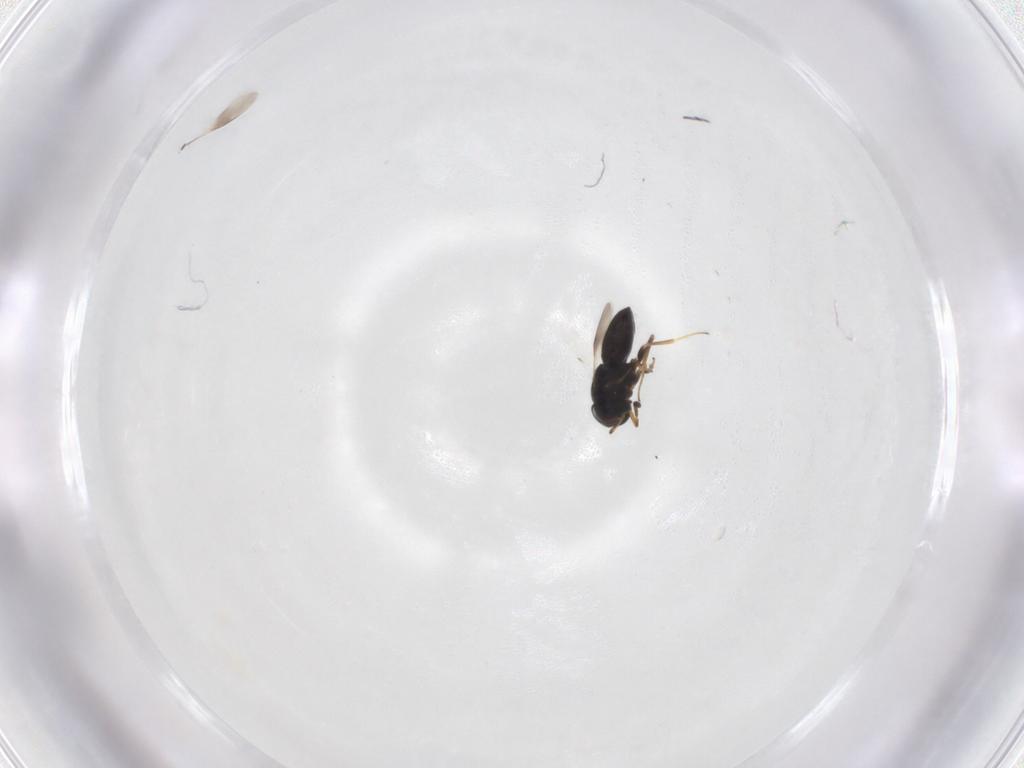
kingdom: Animalia
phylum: Arthropoda
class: Insecta
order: Hymenoptera
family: Scelionidae
